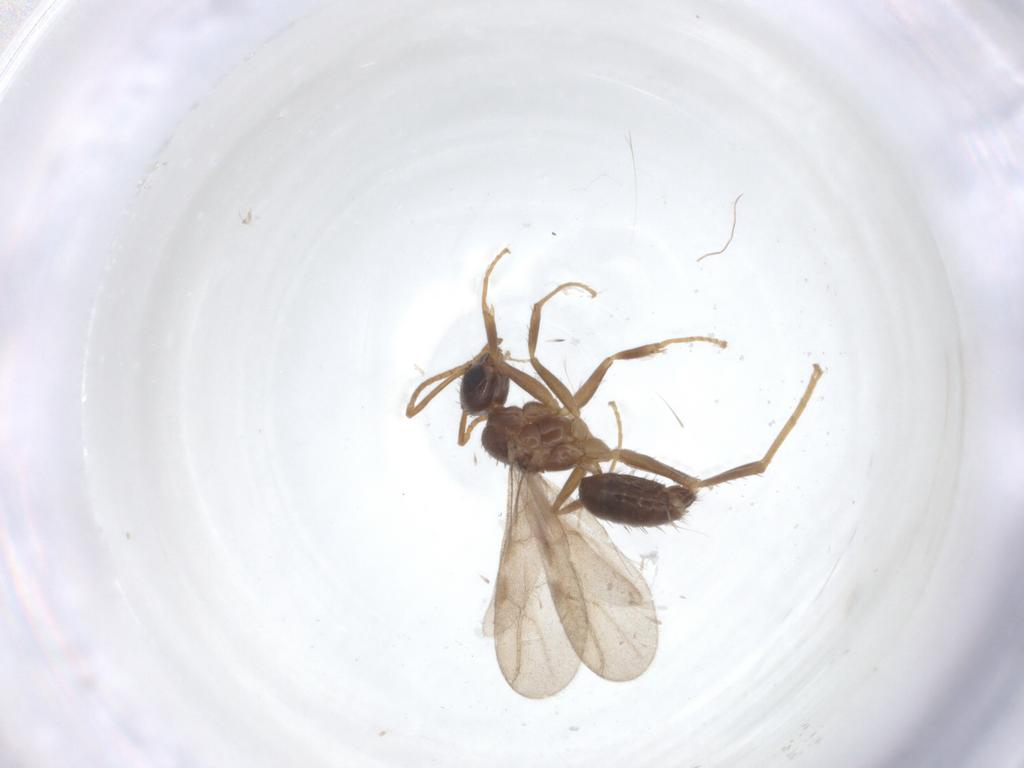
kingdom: Animalia
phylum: Arthropoda
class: Insecta
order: Hymenoptera
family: Formicidae
